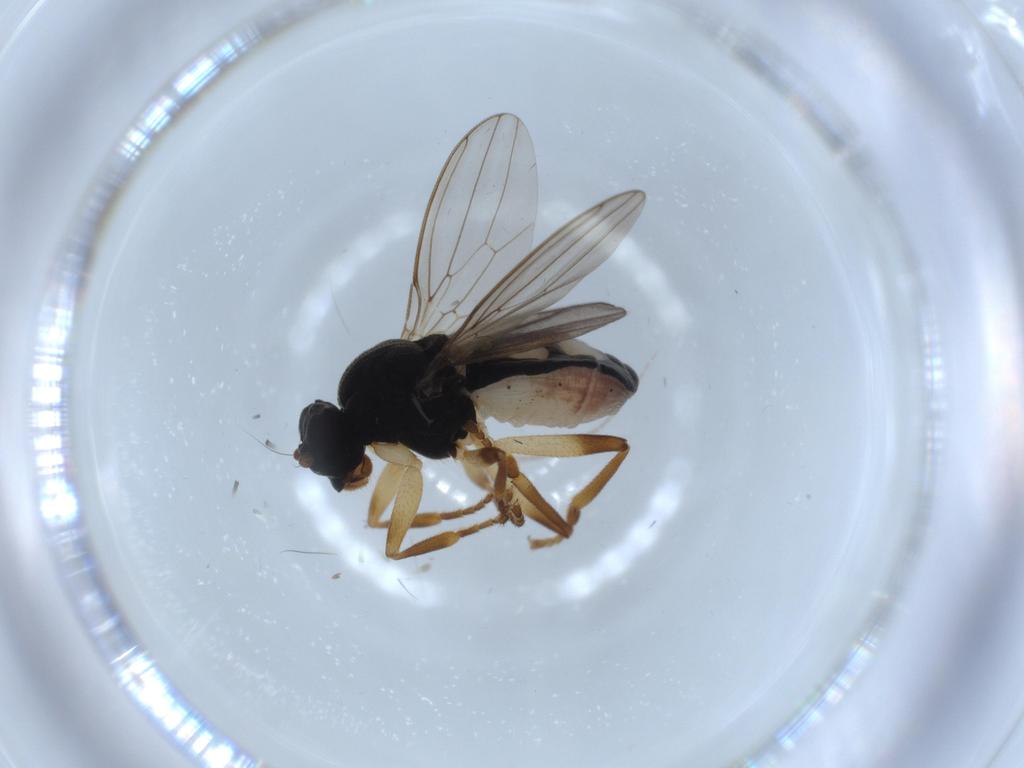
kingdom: Animalia
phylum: Arthropoda
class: Insecta
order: Diptera
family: Sphaeroceridae
